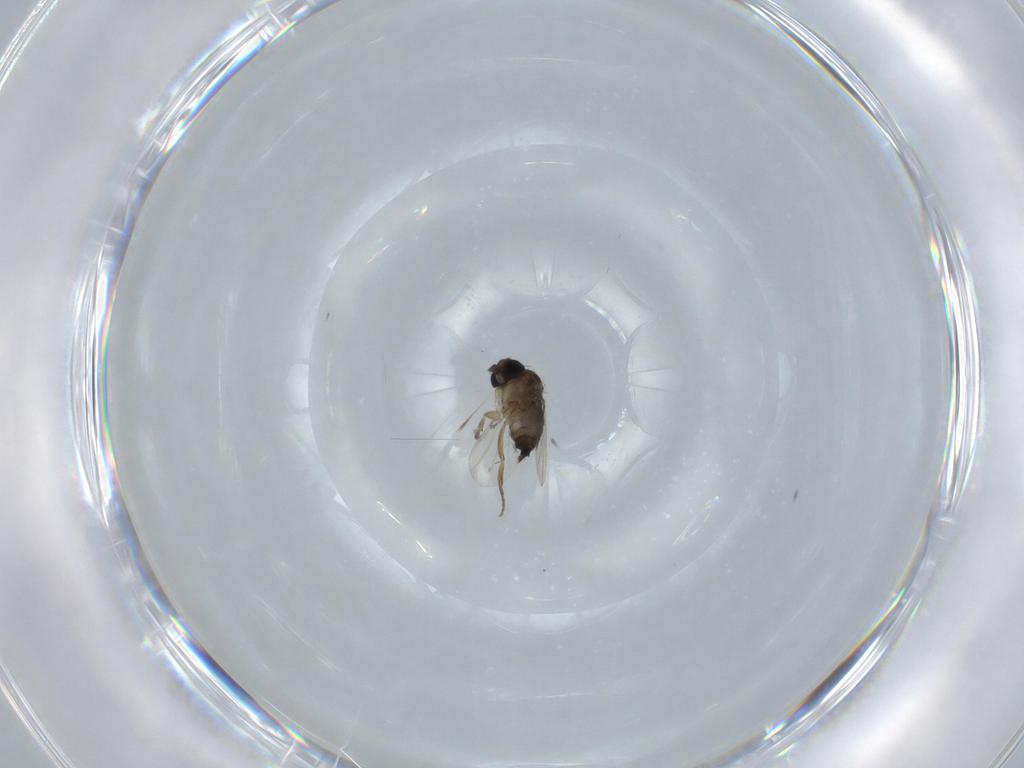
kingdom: Animalia
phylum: Arthropoda
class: Insecta
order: Diptera
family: Phoridae
